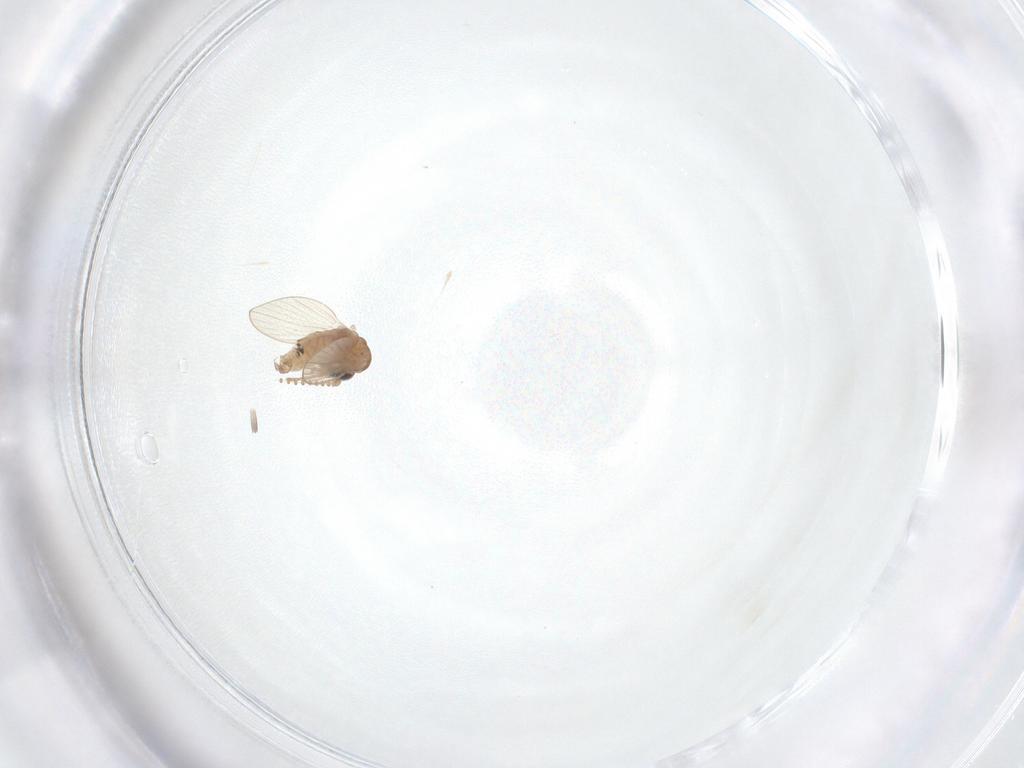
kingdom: Animalia
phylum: Arthropoda
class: Insecta
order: Diptera
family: Psychodidae
